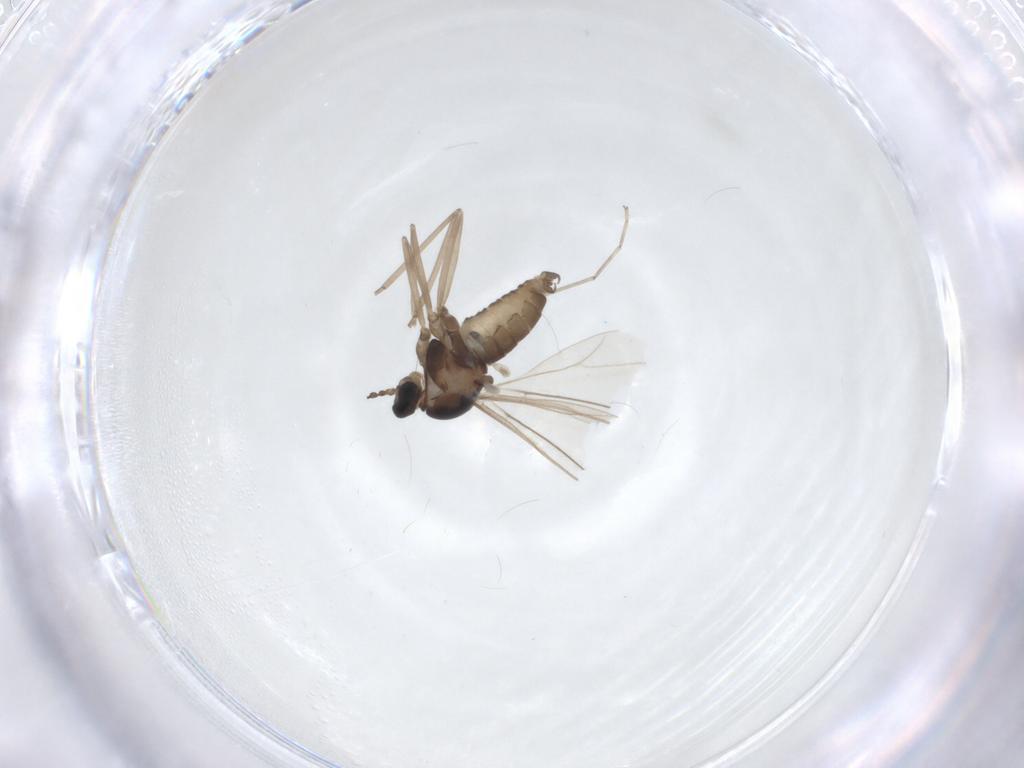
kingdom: Animalia
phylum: Arthropoda
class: Insecta
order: Diptera
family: Cecidomyiidae
